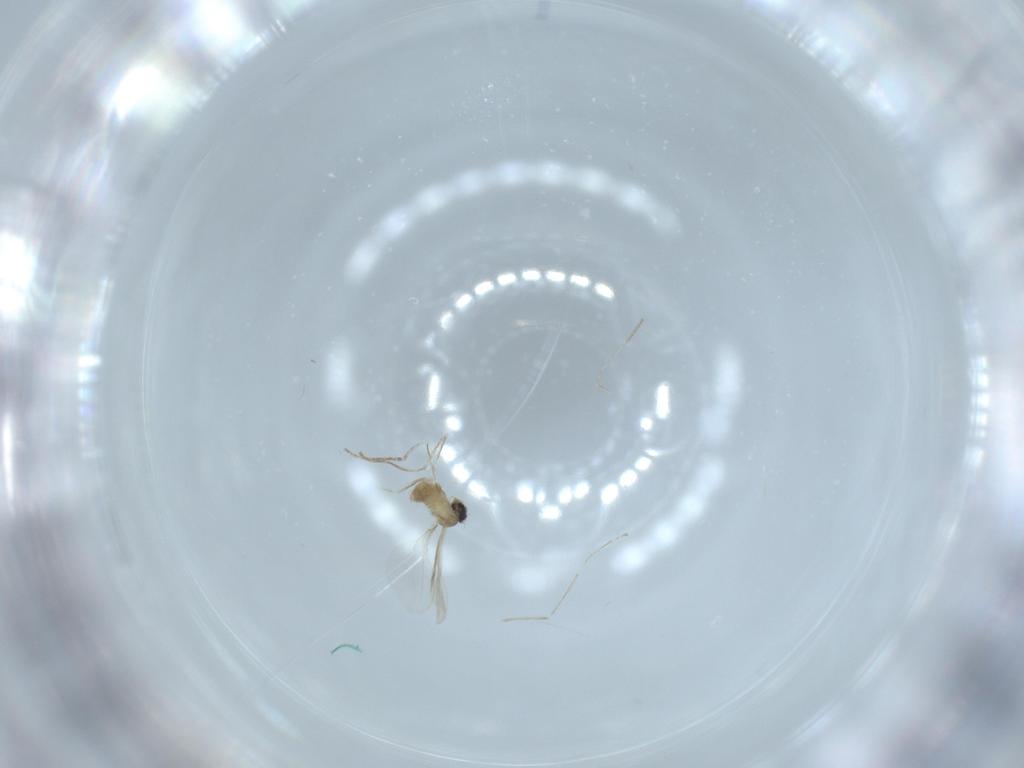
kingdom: Animalia
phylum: Arthropoda
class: Insecta
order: Diptera
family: Cecidomyiidae
